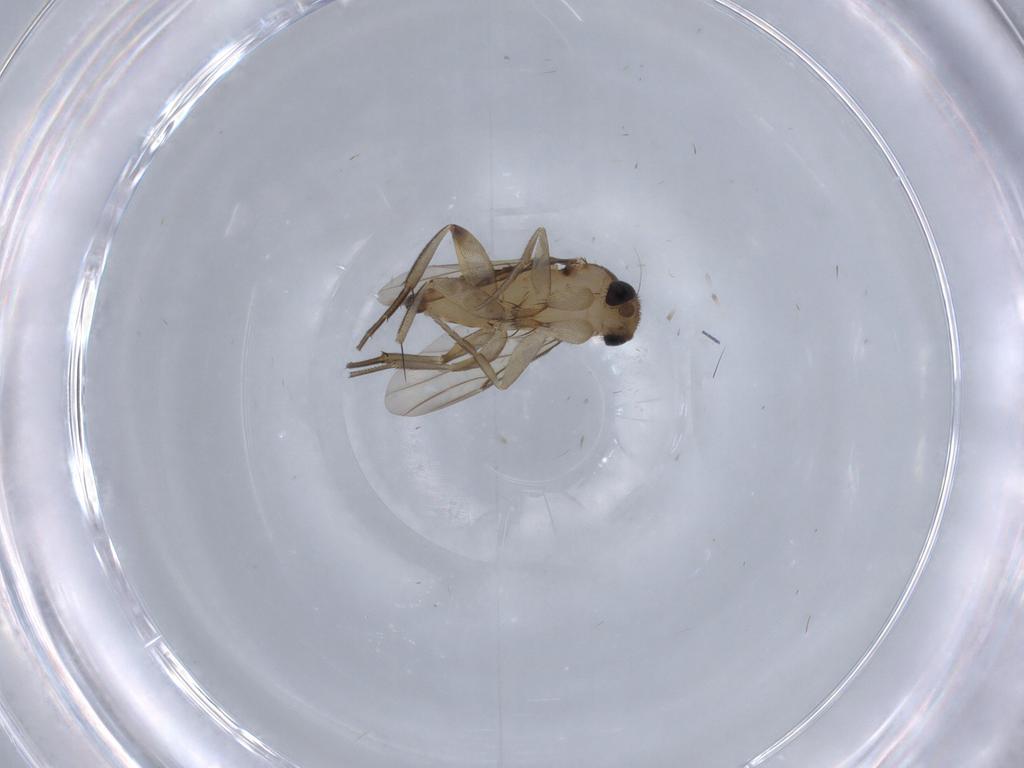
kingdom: Animalia
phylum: Arthropoda
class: Insecta
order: Diptera
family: Phoridae
